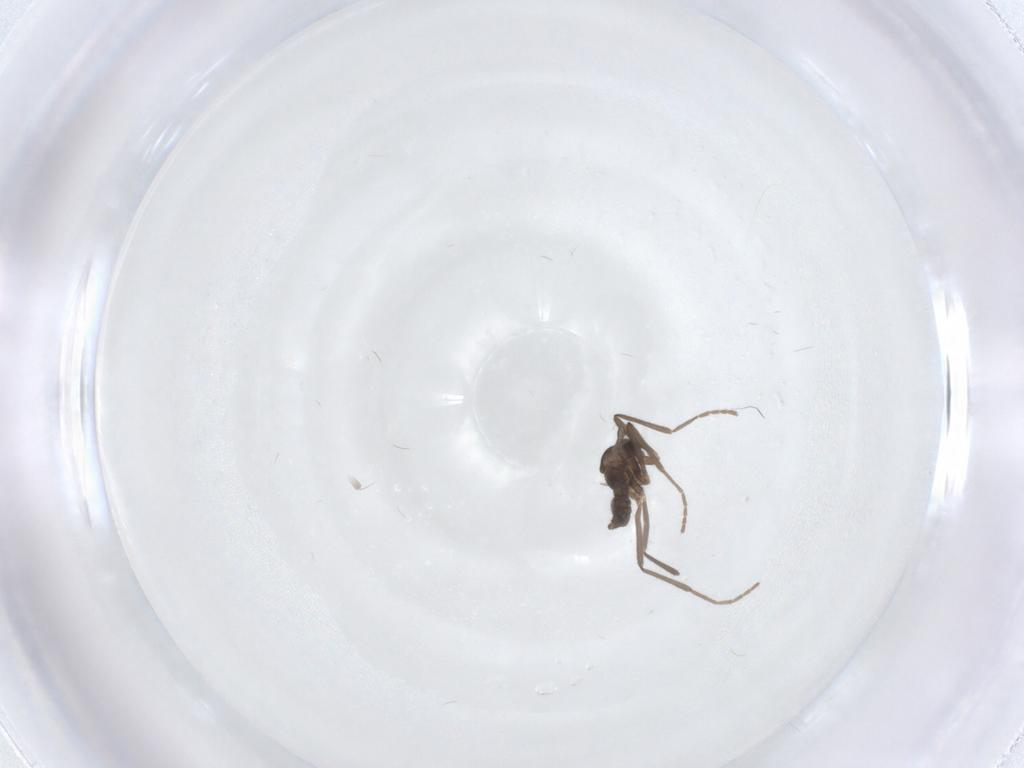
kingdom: Animalia
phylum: Arthropoda
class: Insecta
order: Diptera
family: Cecidomyiidae
